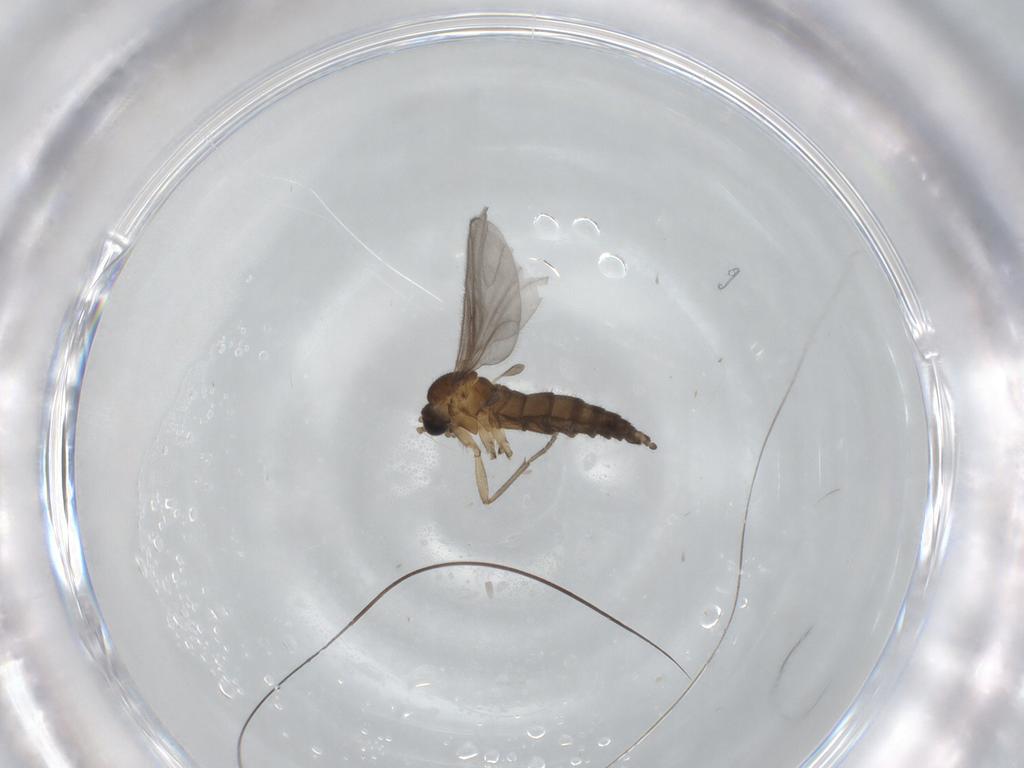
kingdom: Animalia
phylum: Arthropoda
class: Insecta
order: Diptera
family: Sciaridae
